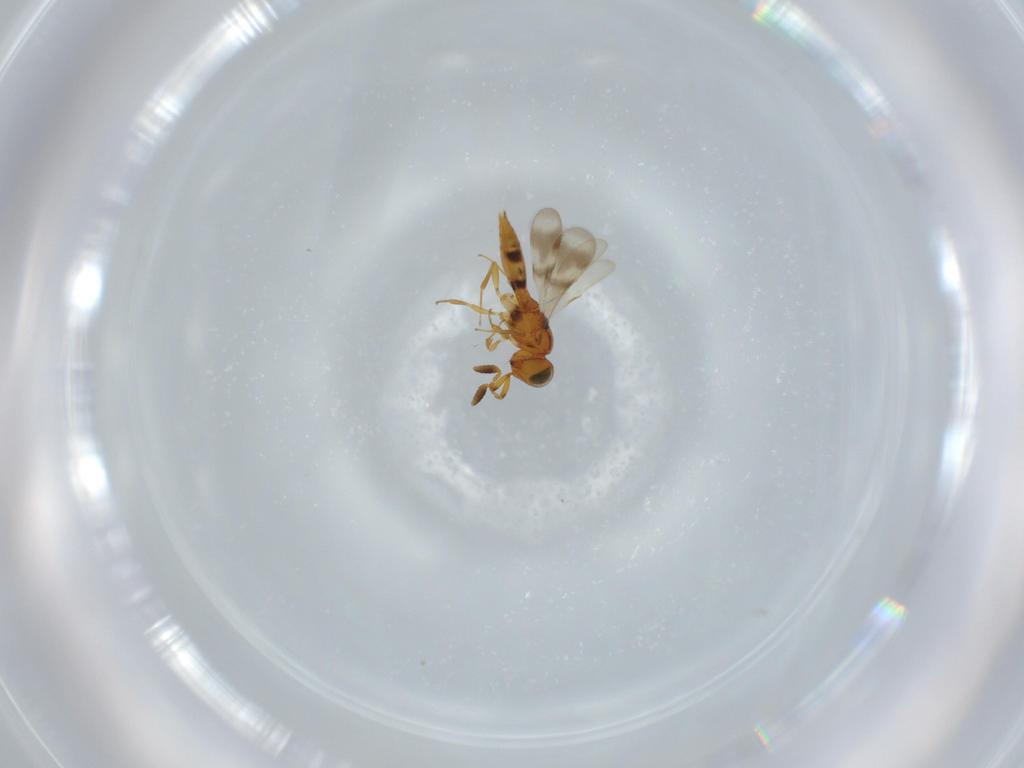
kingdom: Animalia
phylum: Arthropoda
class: Insecta
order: Hymenoptera
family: Scelionidae
